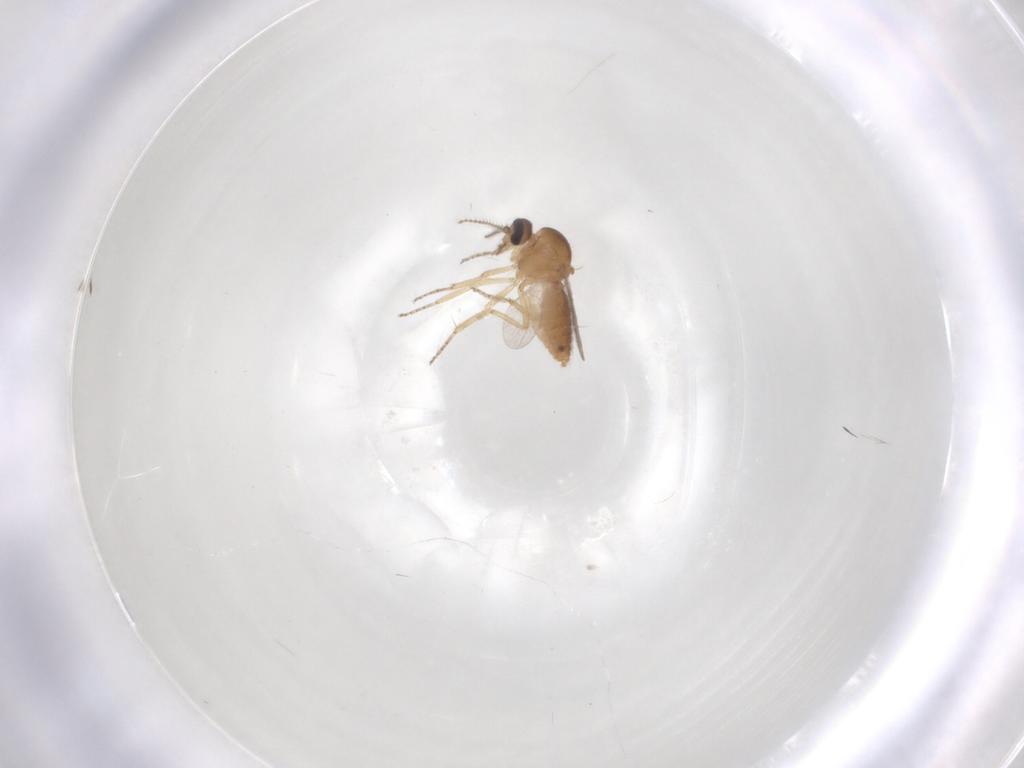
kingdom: Animalia
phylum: Arthropoda
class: Insecta
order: Diptera
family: Ceratopogonidae
